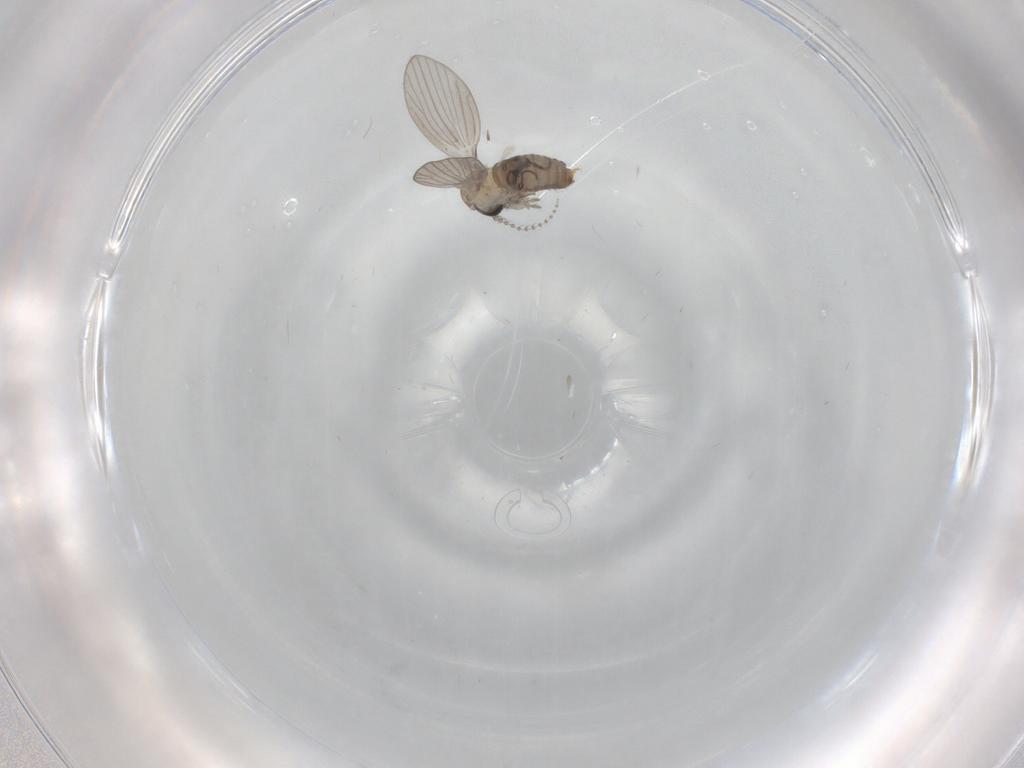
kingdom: Animalia
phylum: Arthropoda
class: Insecta
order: Diptera
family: Psychodidae
